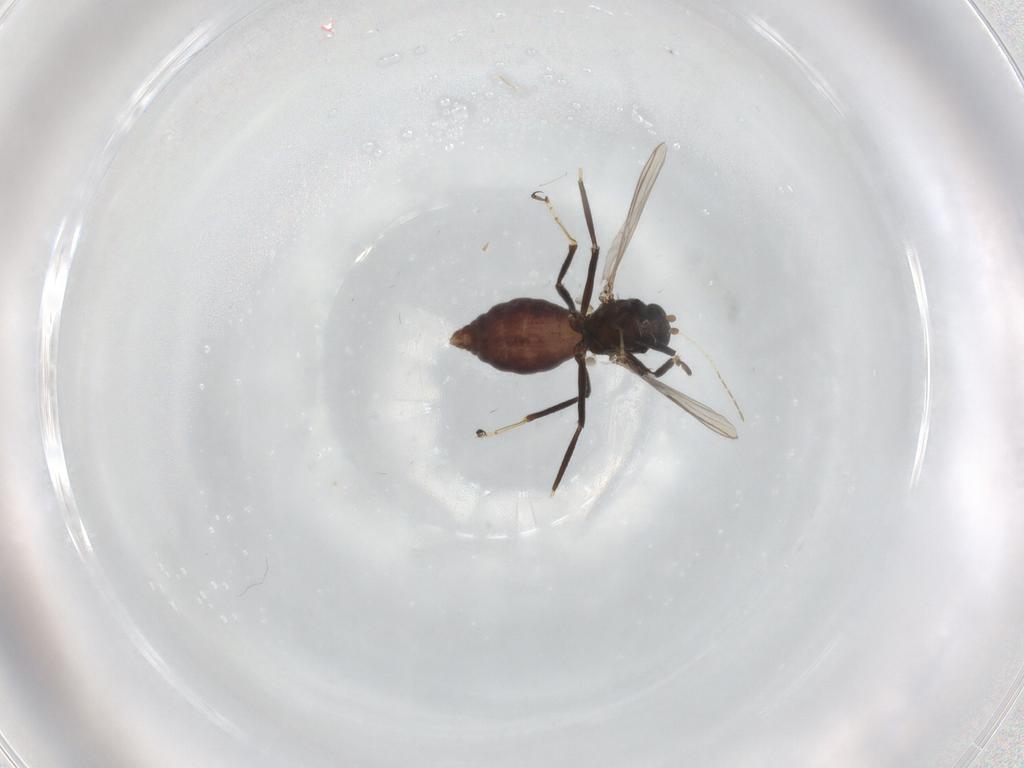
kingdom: Animalia
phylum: Arthropoda
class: Insecta
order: Diptera
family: Ceratopogonidae
